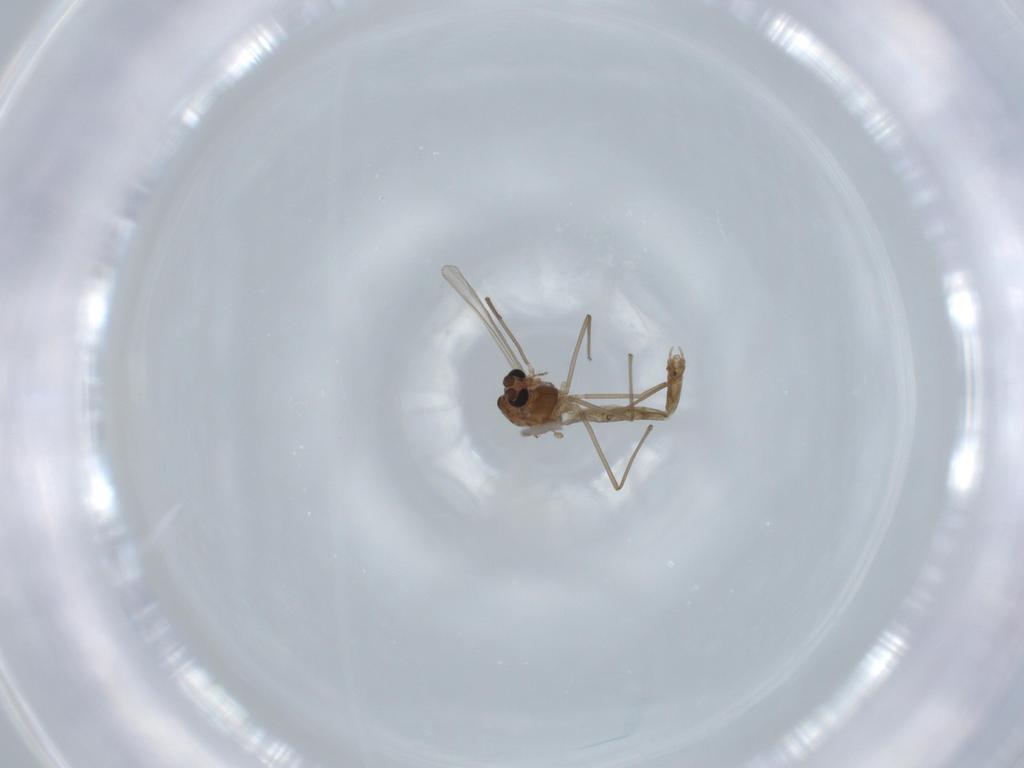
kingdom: Animalia
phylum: Arthropoda
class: Insecta
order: Diptera
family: Chironomidae
